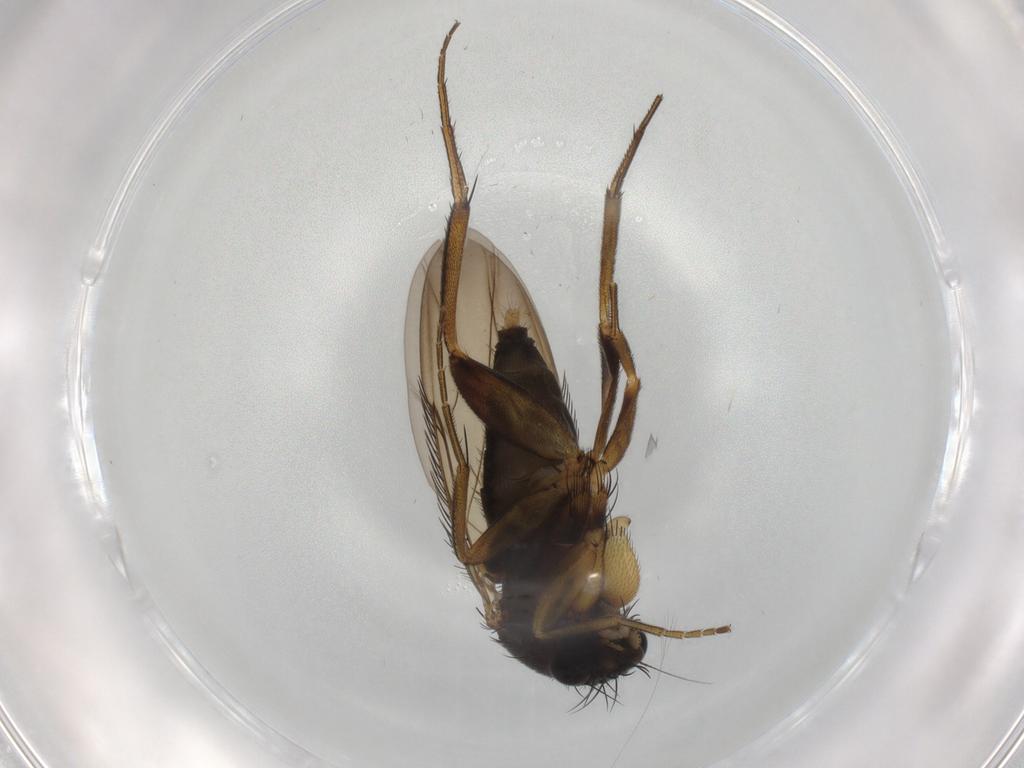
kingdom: Animalia
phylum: Arthropoda
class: Insecta
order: Diptera
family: Phoridae
